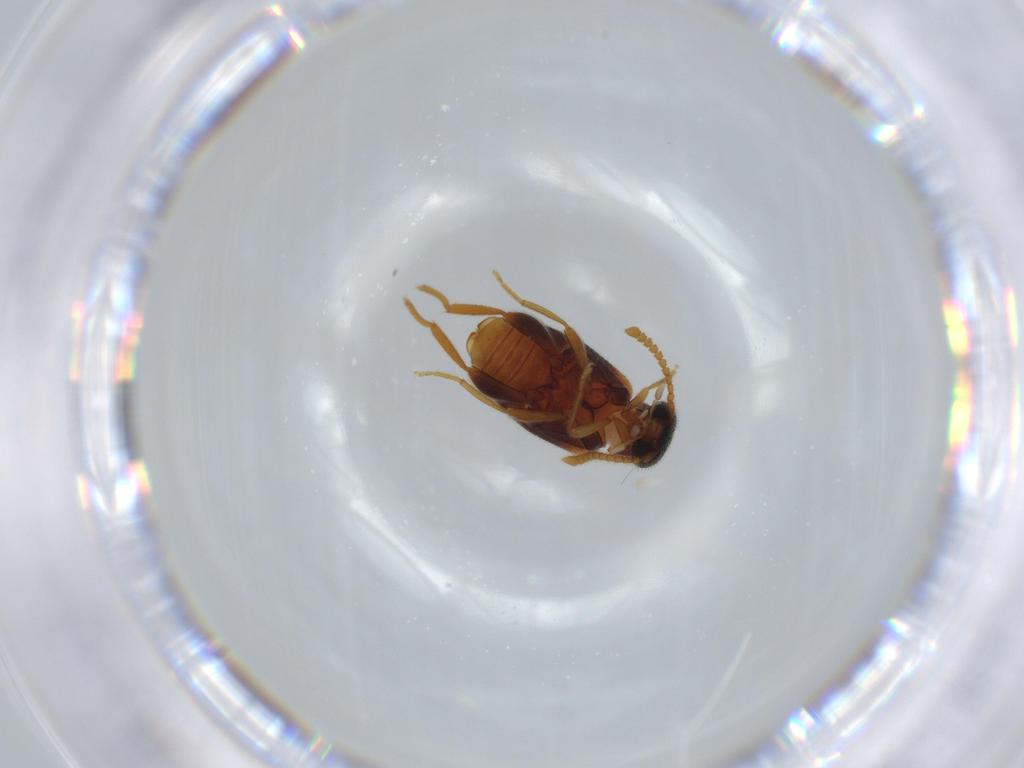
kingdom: Animalia
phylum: Arthropoda
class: Insecta
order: Coleoptera
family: Aderidae
